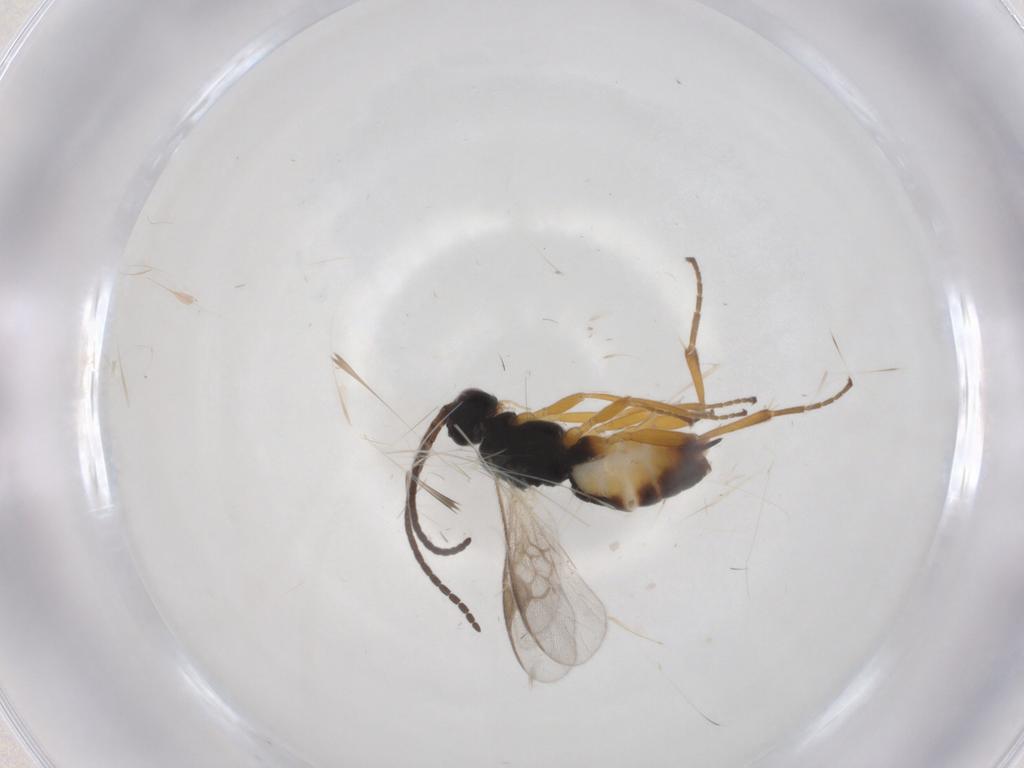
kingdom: Animalia
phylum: Arthropoda
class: Insecta
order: Hymenoptera
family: Braconidae
